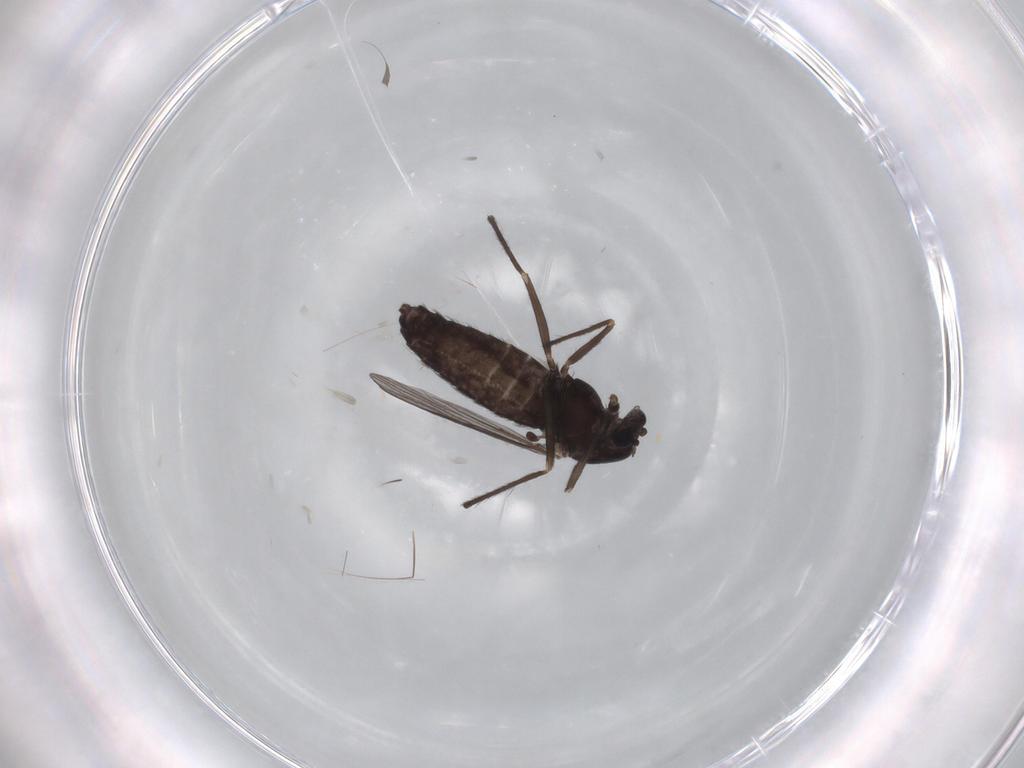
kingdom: Animalia
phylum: Arthropoda
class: Insecta
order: Diptera
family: Chironomidae
